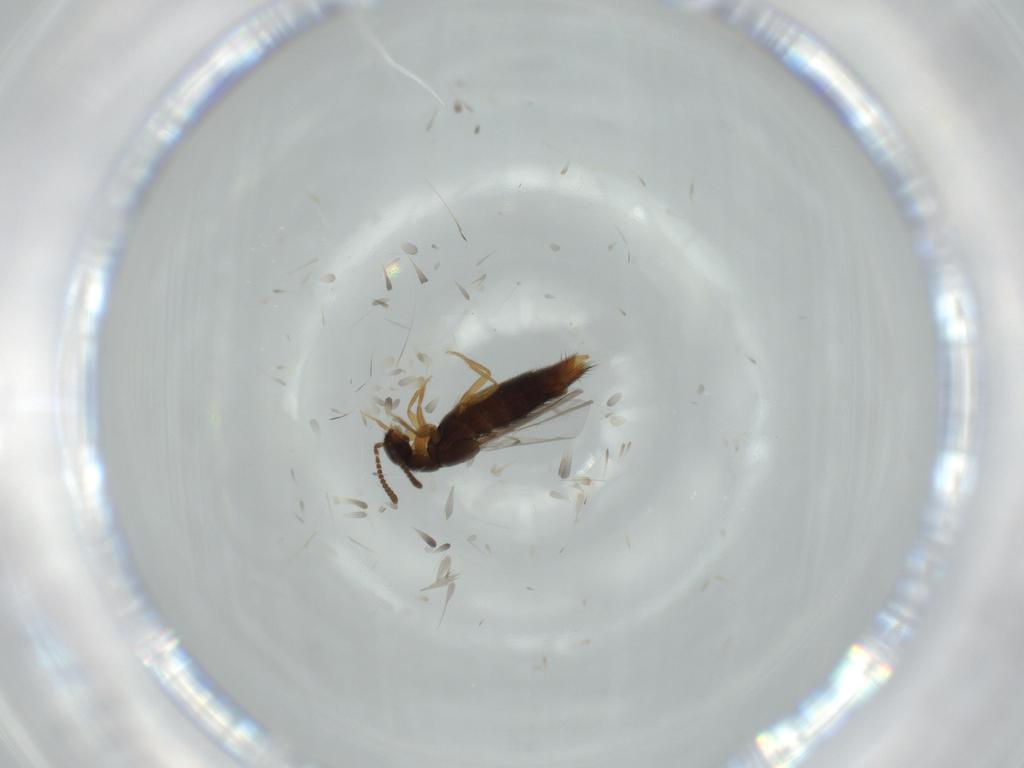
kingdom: Animalia
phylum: Arthropoda
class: Insecta
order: Coleoptera
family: Staphylinidae
